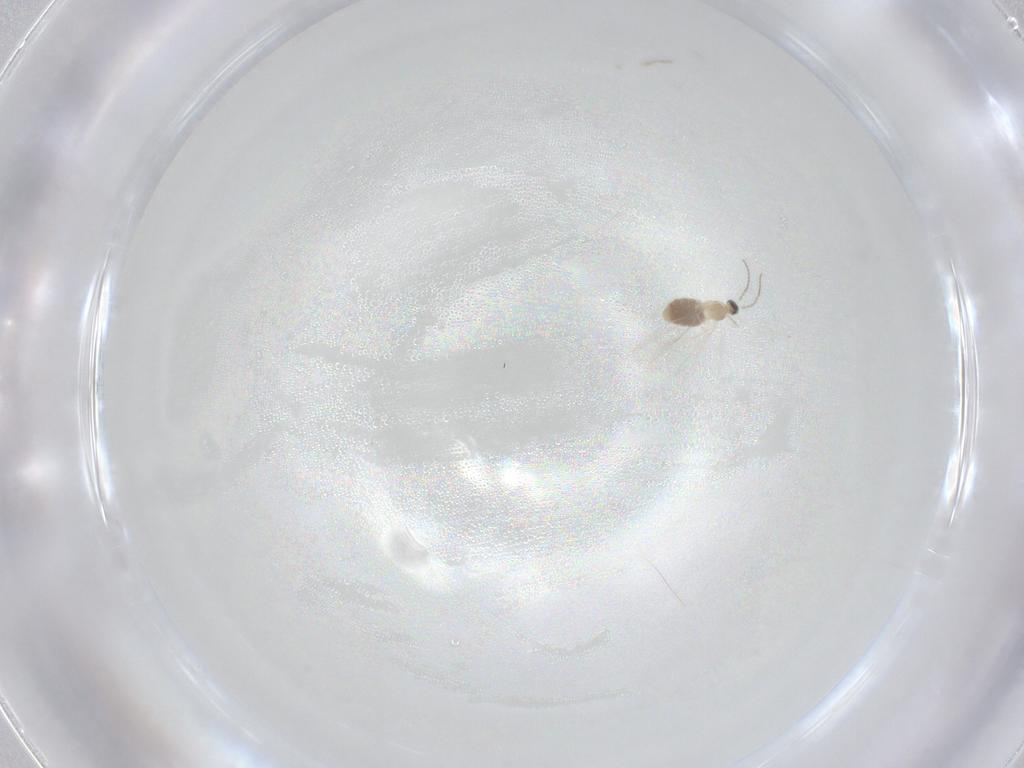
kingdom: Animalia
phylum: Arthropoda
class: Insecta
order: Diptera
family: Cecidomyiidae
